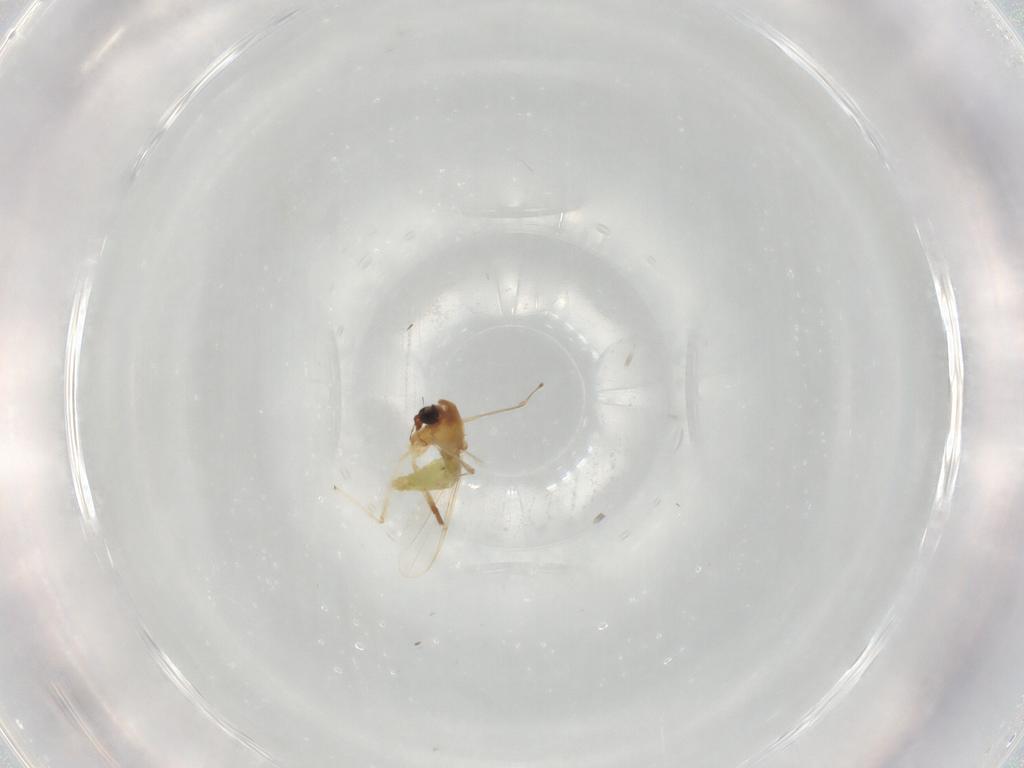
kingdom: Animalia
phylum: Arthropoda
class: Insecta
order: Diptera
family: Chironomidae
